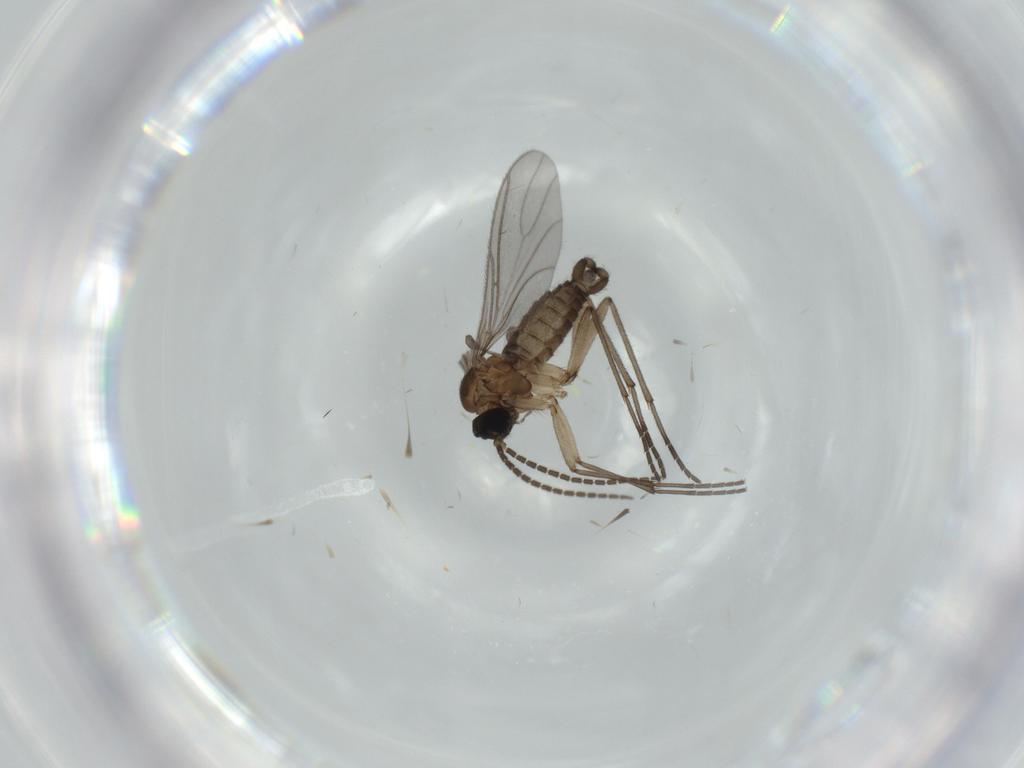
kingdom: Animalia
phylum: Arthropoda
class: Insecta
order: Diptera
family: Sciaridae
